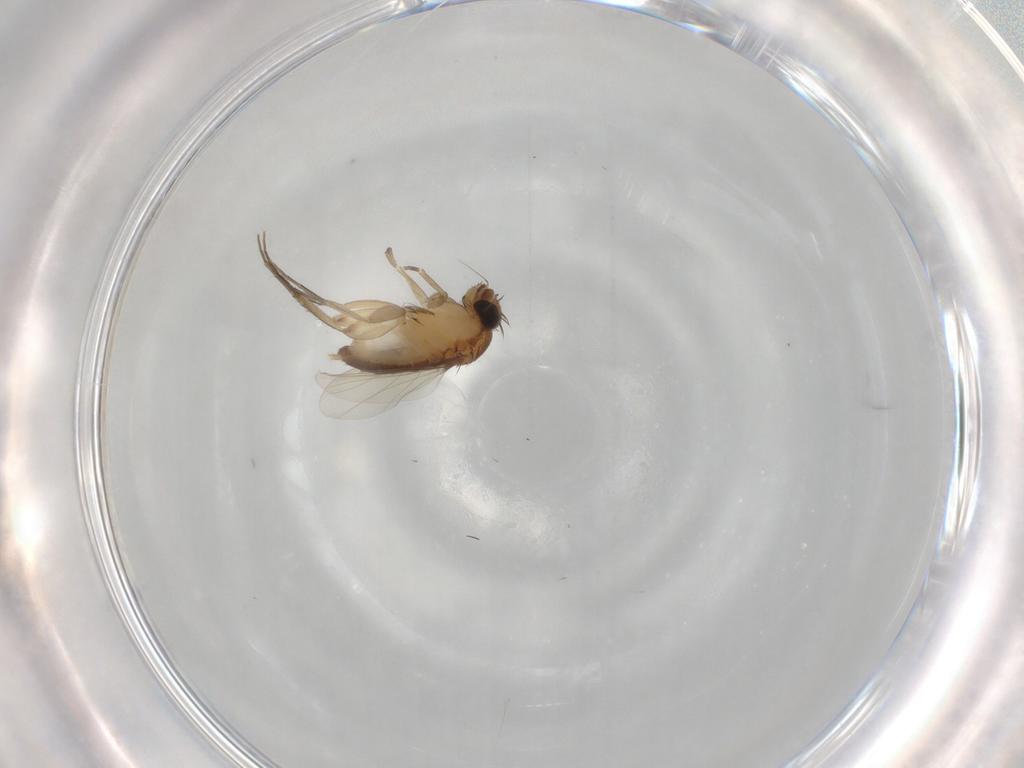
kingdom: Animalia
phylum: Arthropoda
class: Insecta
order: Diptera
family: Phoridae
